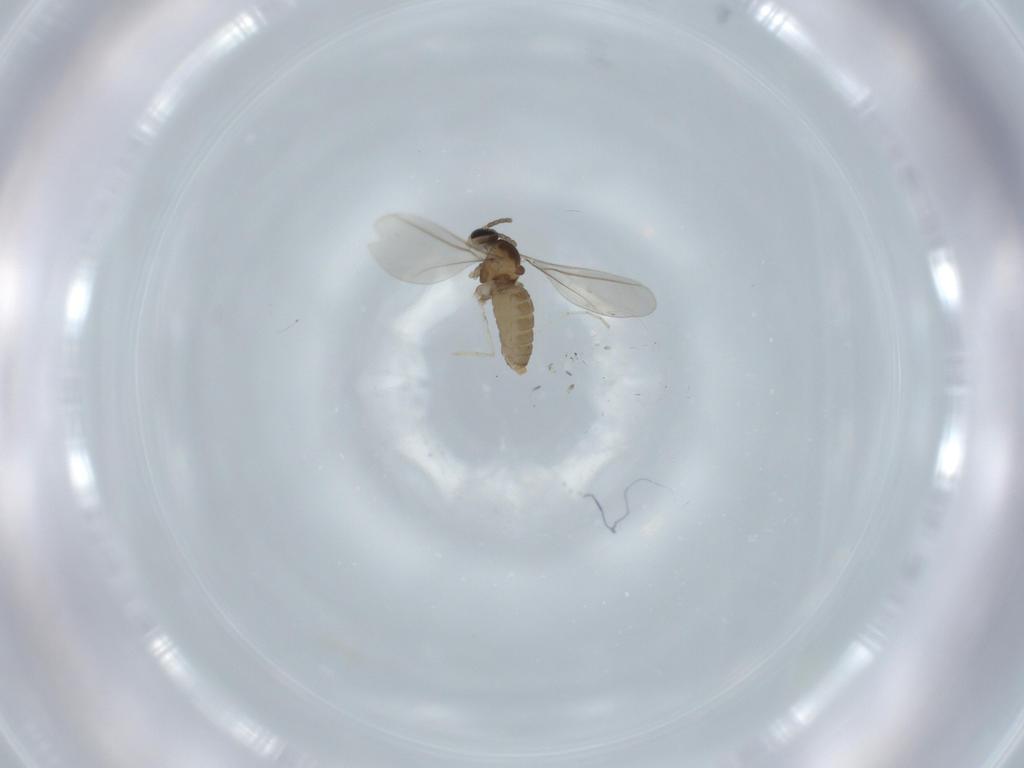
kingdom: Animalia
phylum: Arthropoda
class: Insecta
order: Diptera
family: Cecidomyiidae
